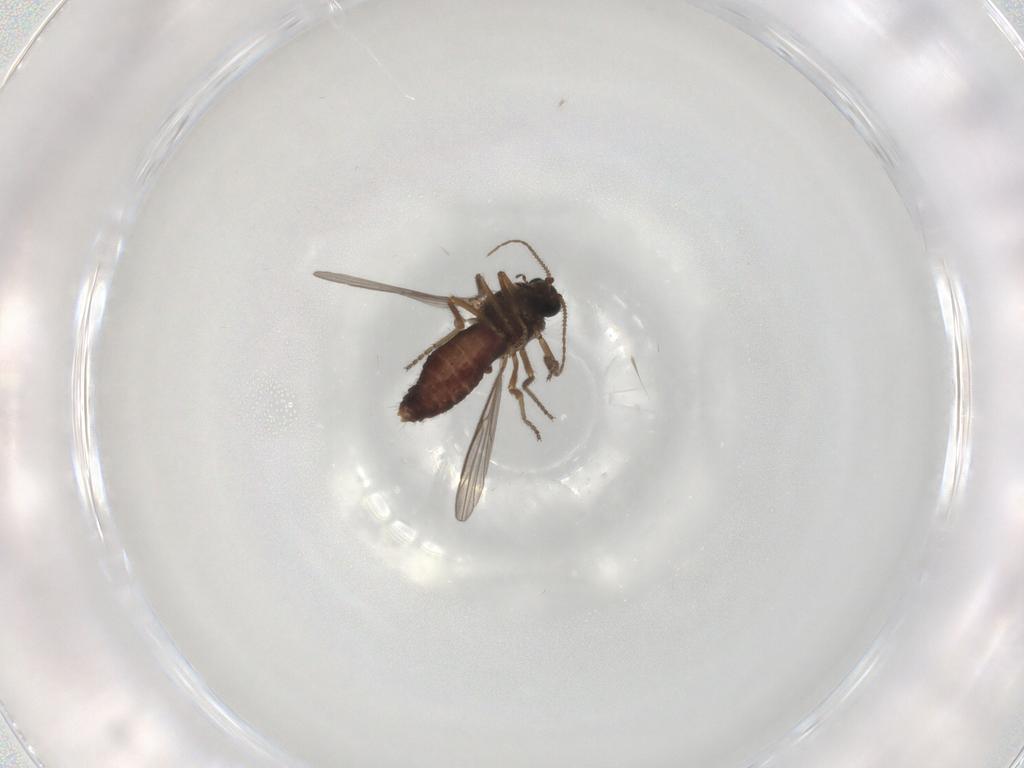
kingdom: Animalia
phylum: Arthropoda
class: Insecta
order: Diptera
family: Ceratopogonidae
